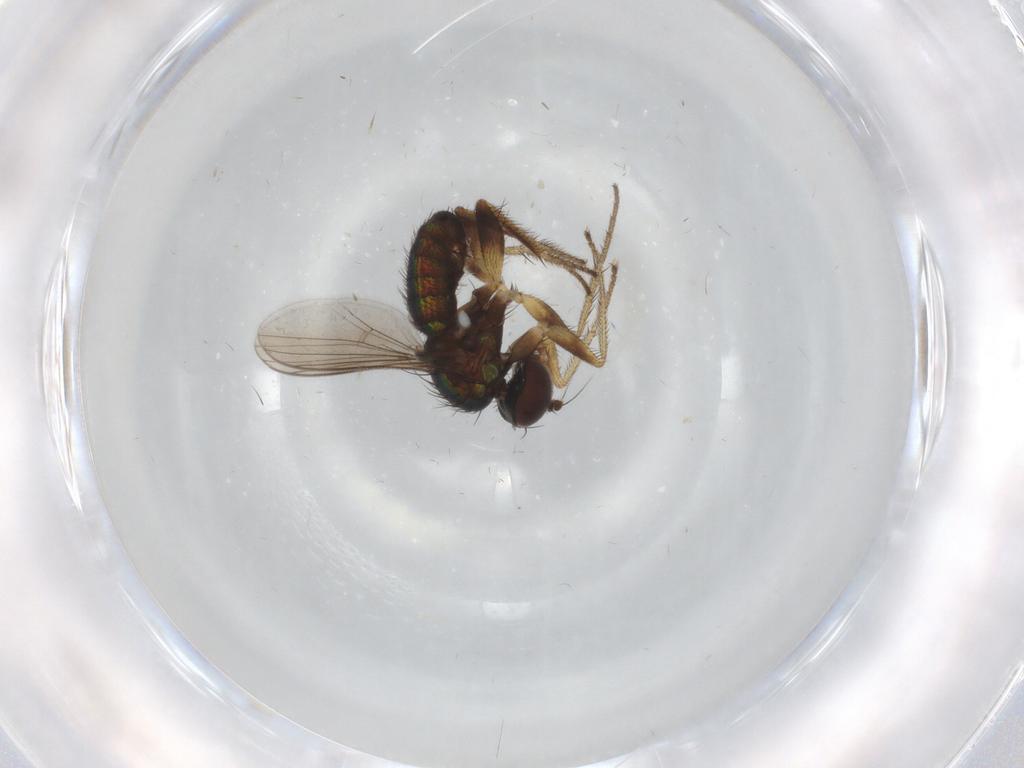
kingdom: Animalia
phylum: Arthropoda
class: Insecta
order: Diptera
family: Dolichopodidae
